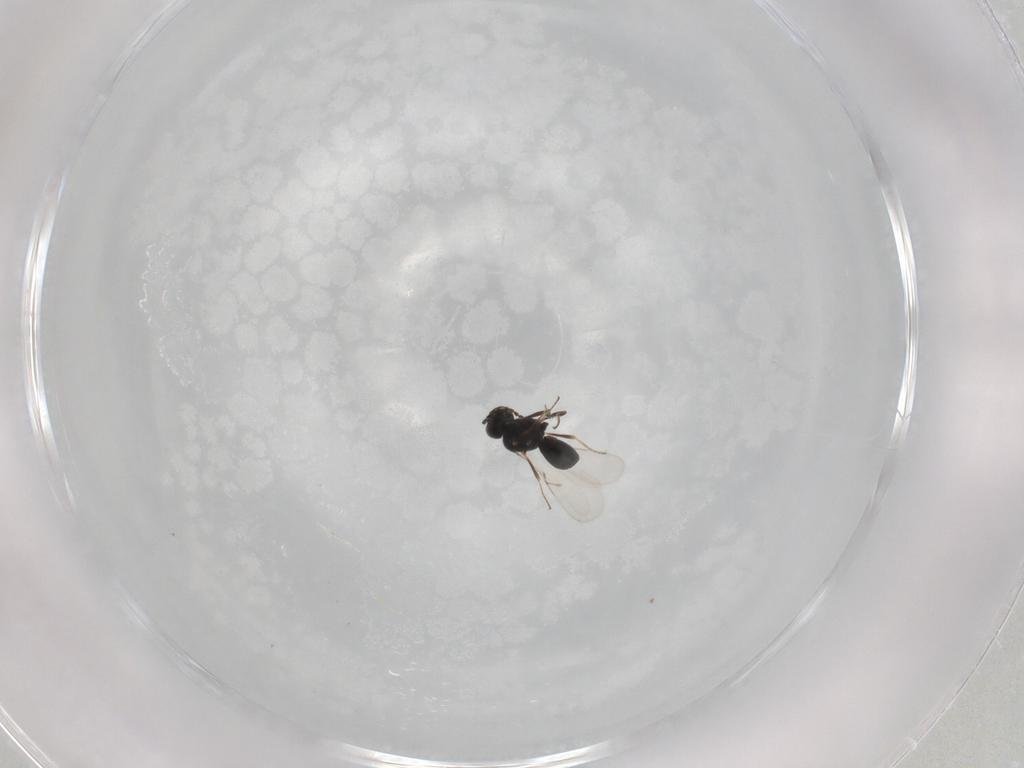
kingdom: Animalia
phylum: Arthropoda
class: Insecta
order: Hymenoptera
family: Scelionidae
